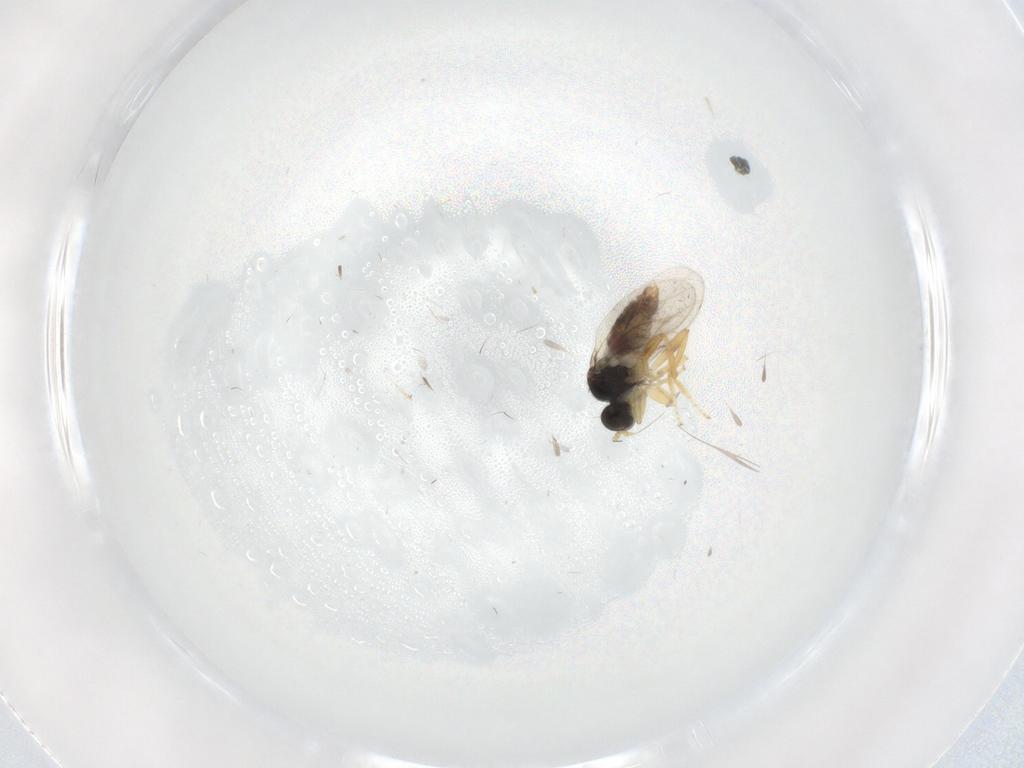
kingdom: Animalia
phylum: Arthropoda
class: Insecta
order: Diptera
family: Hybotidae
